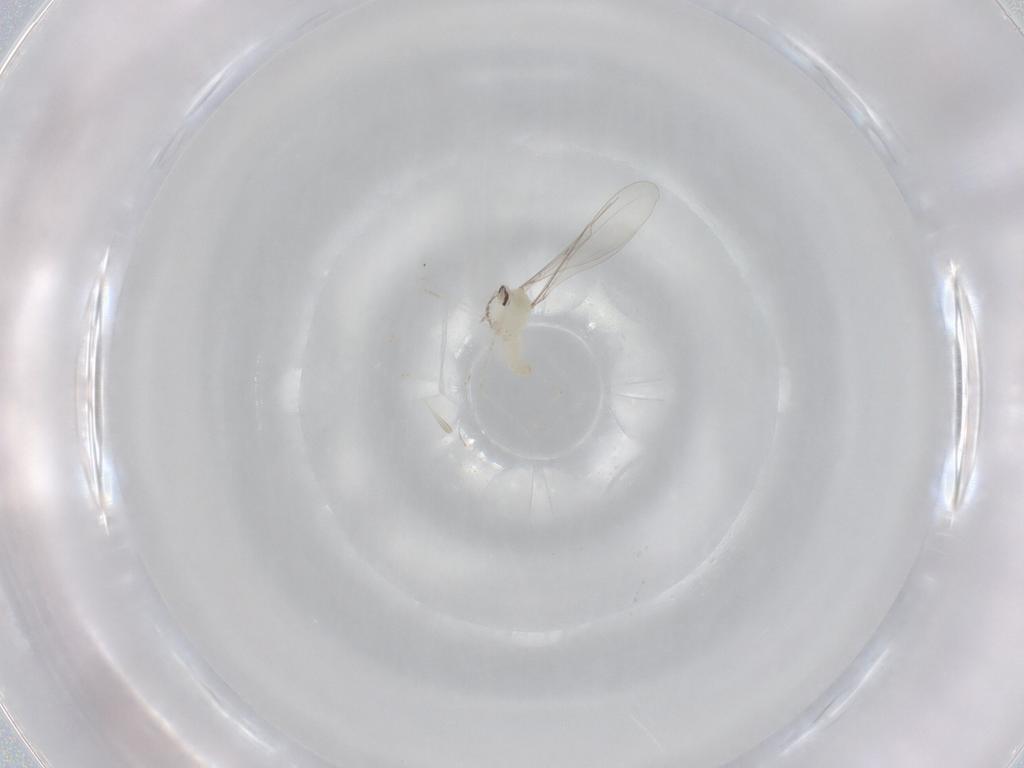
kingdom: Animalia
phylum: Arthropoda
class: Insecta
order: Diptera
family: Cecidomyiidae
